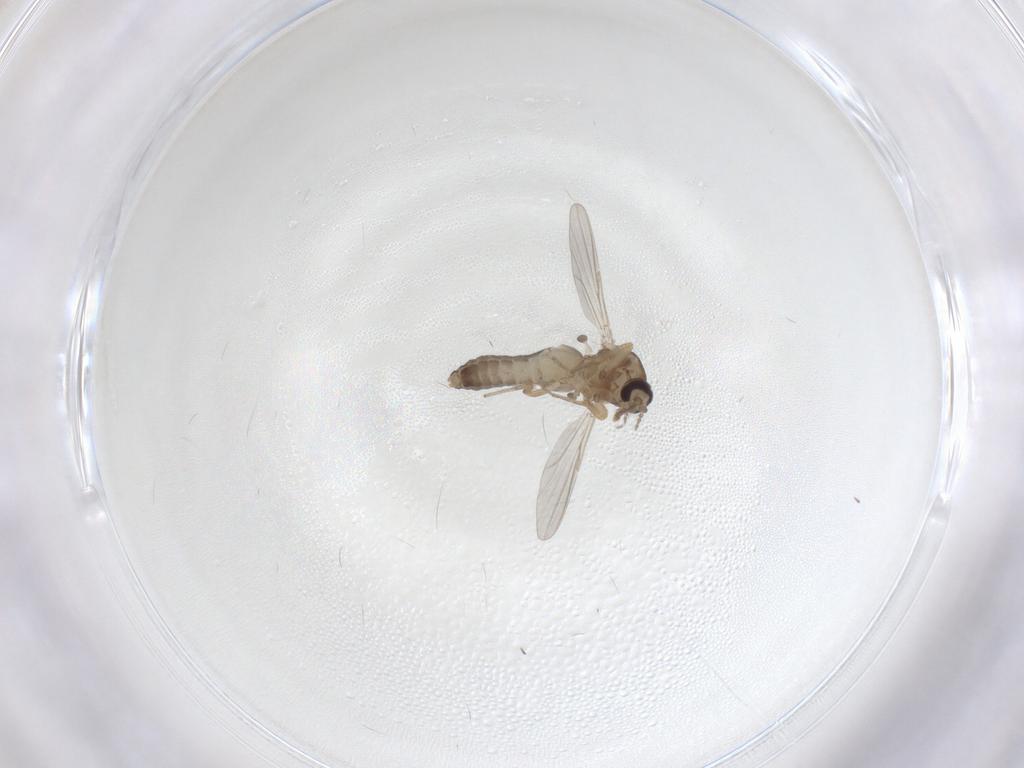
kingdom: Animalia
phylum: Arthropoda
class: Insecta
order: Diptera
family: Ceratopogonidae
